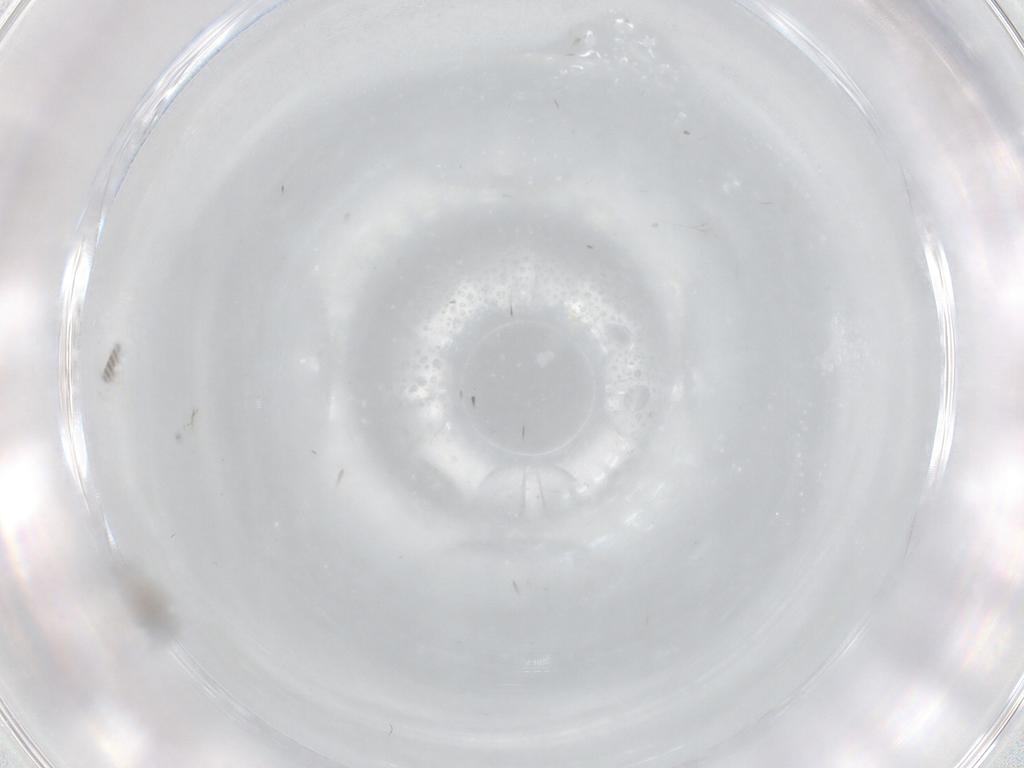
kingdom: Animalia
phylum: Arthropoda
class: Insecta
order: Diptera
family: Cecidomyiidae
